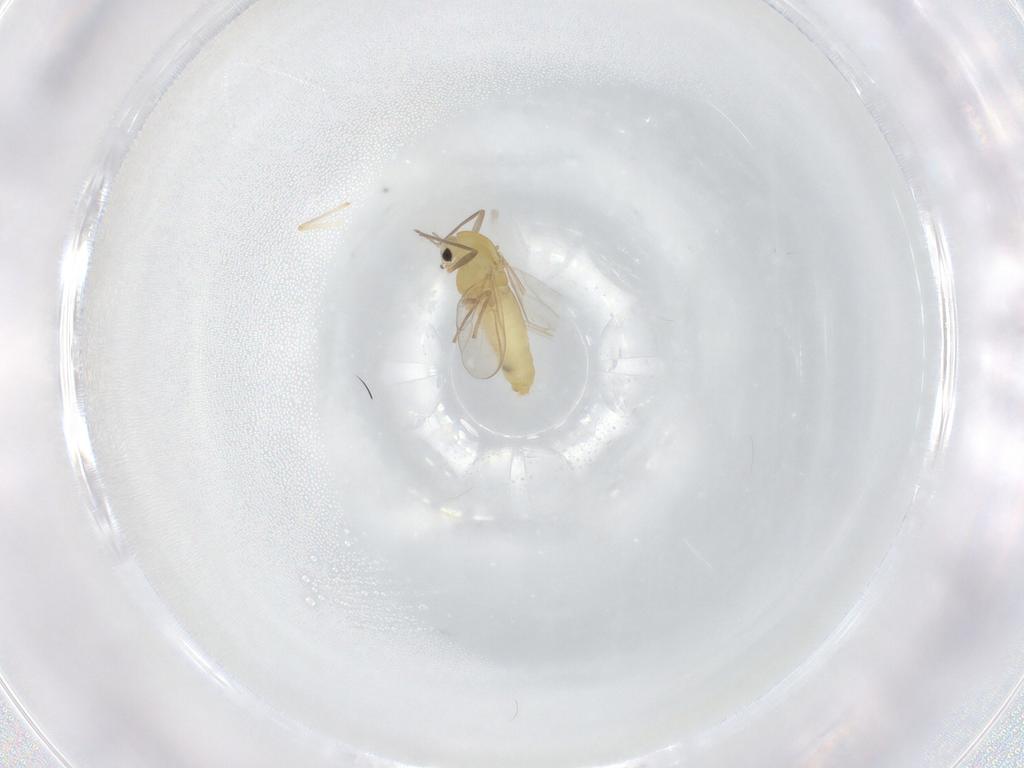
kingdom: Animalia
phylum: Arthropoda
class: Insecta
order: Diptera
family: Chironomidae
